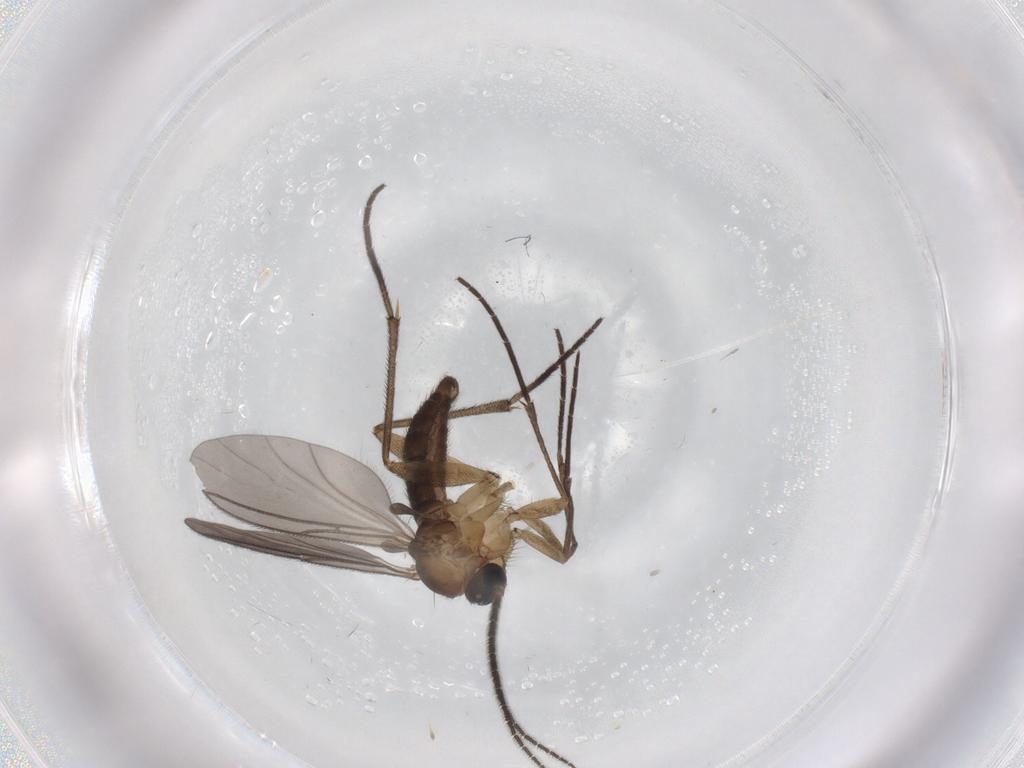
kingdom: Animalia
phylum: Arthropoda
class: Insecta
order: Diptera
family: Sciaridae
